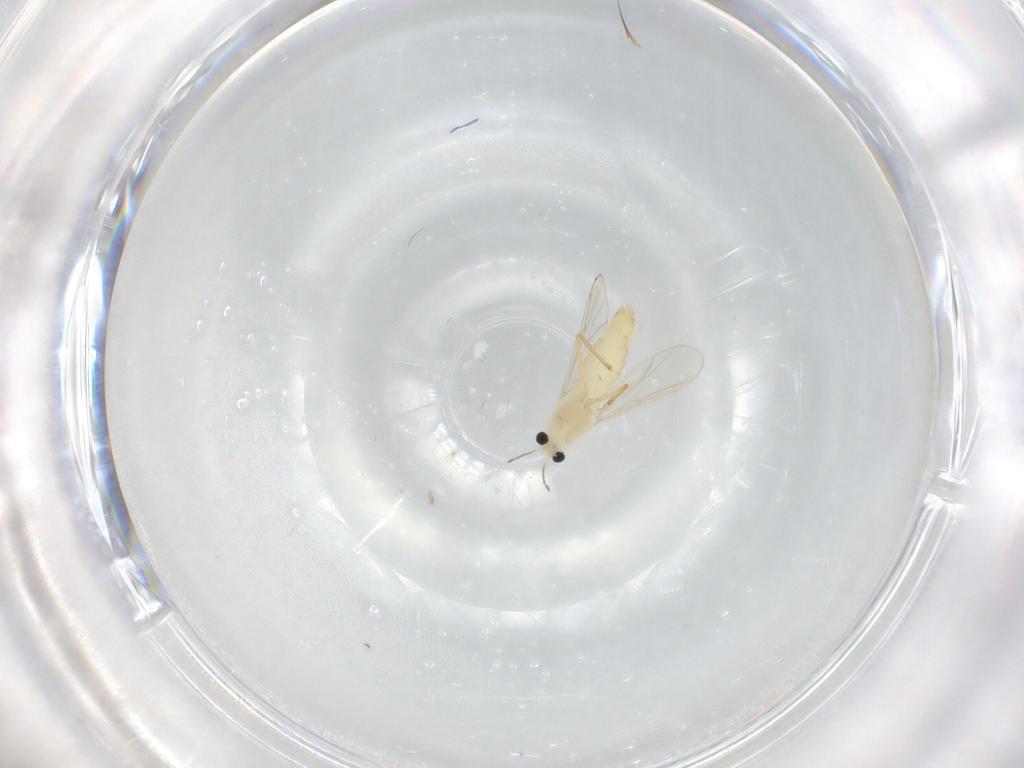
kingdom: Animalia
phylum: Arthropoda
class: Insecta
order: Diptera
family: Chironomidae
